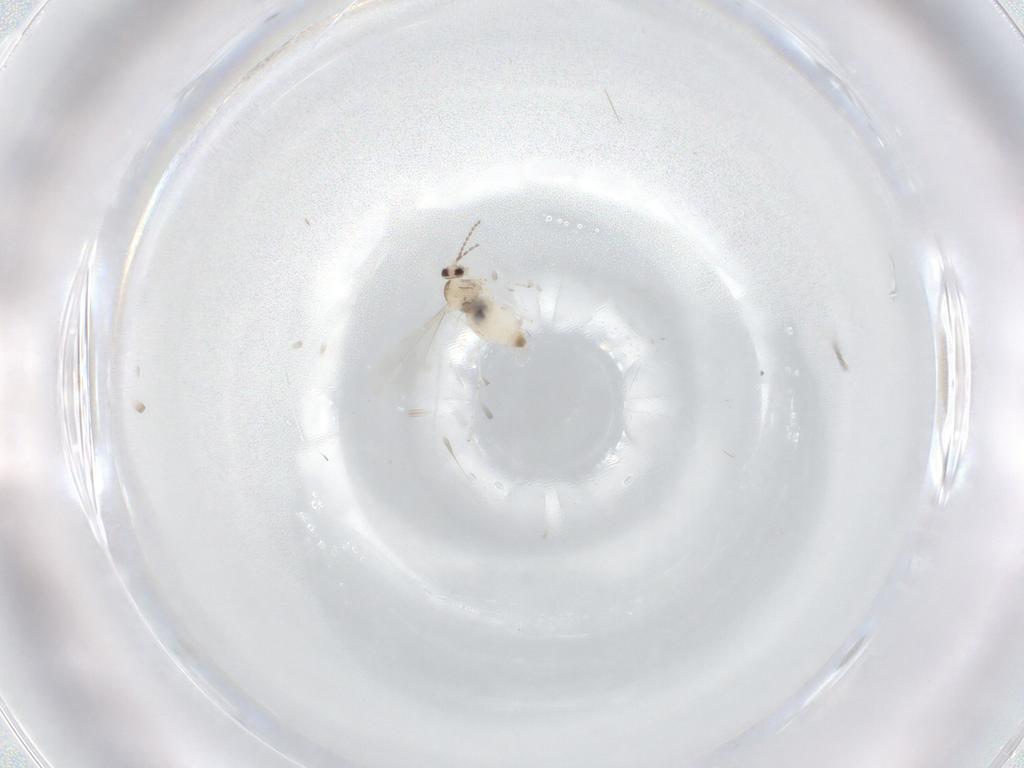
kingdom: Animalia
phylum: Arthropoda
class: Insecta
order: Diptera
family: Cecidomyiidae
